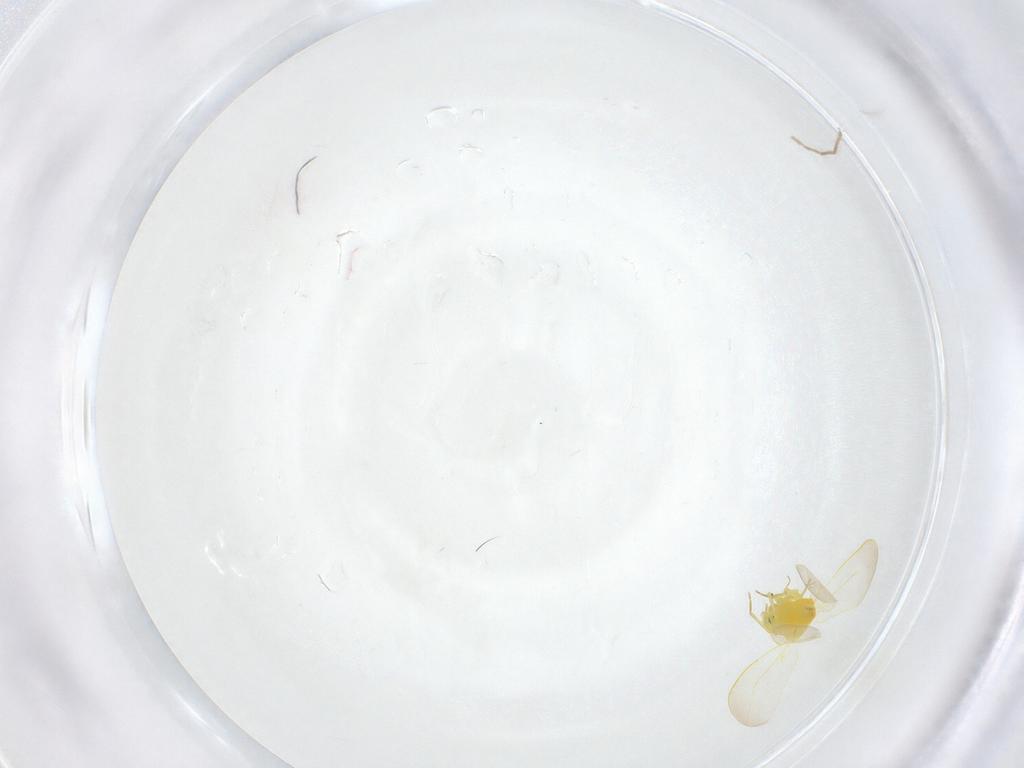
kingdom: Animalia
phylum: Arthropoda
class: Insecta
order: Hemiptera
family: Aleyrodidae
